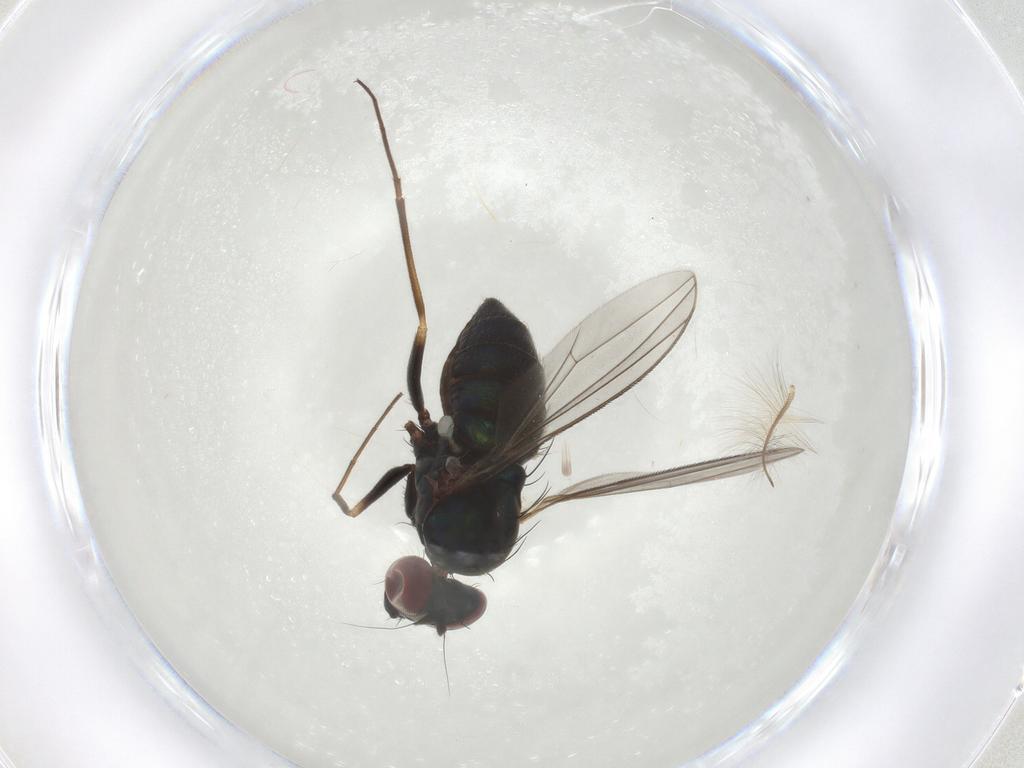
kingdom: Animalia
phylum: Arthropoda
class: Insecta
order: Diptera
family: Dolichopodidae
